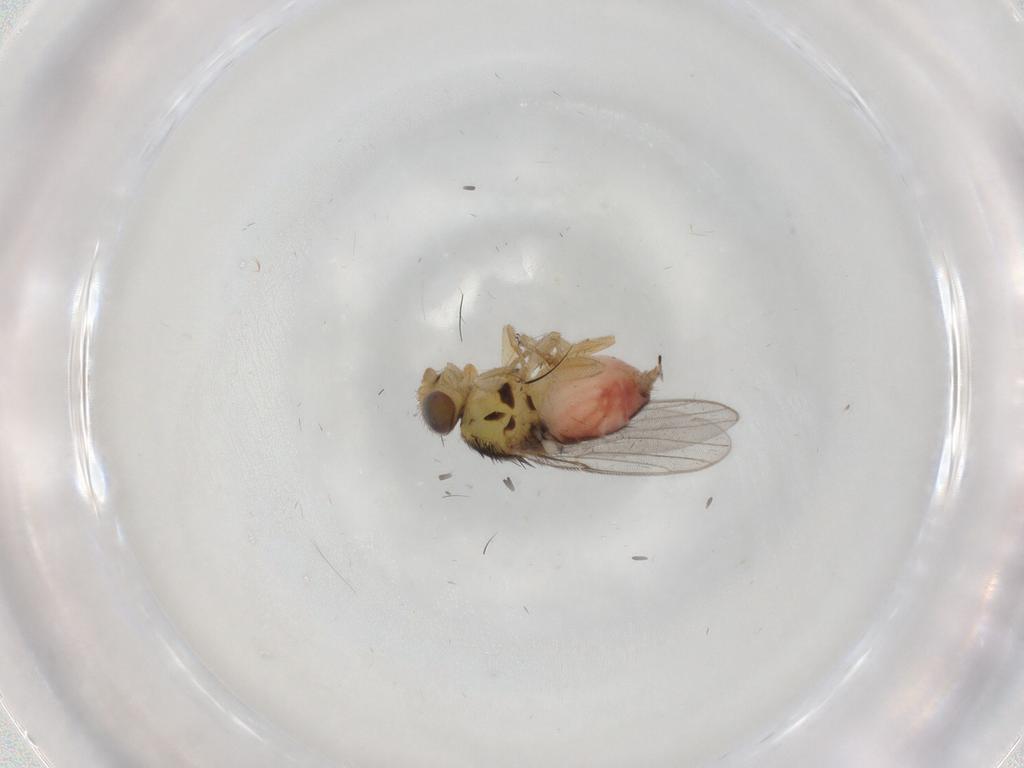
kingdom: Animalia
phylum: Arthropoda
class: Insecta
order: Diptera
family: Chloropidae
